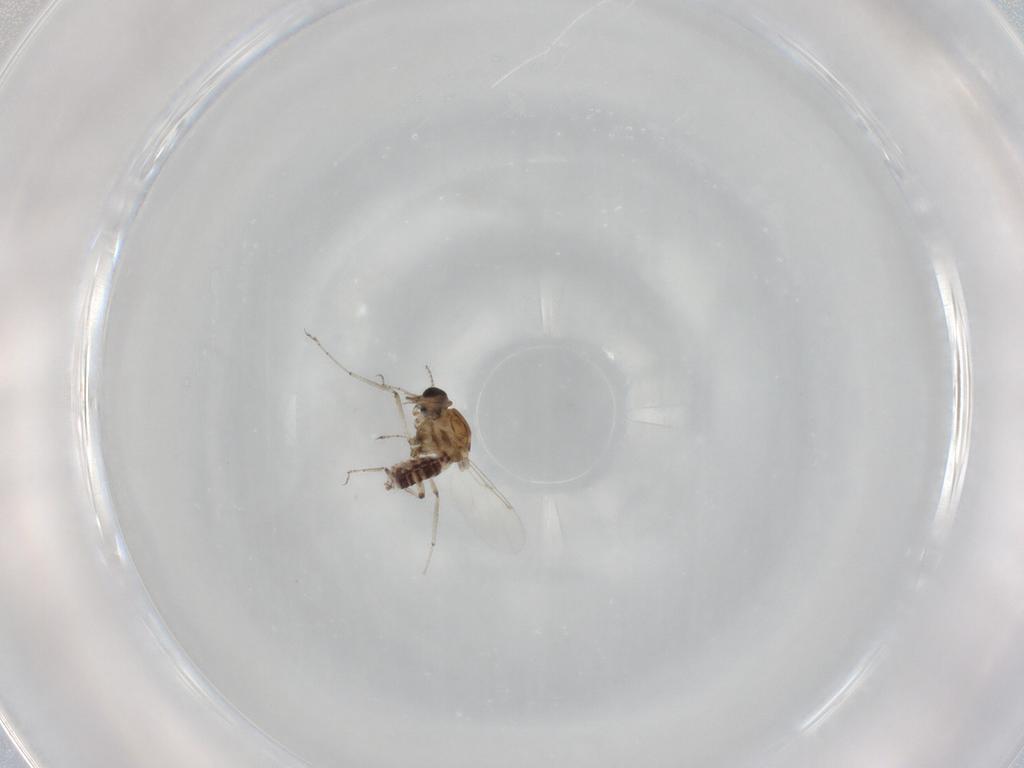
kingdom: Animalia
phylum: Arthropoda
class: Insecta
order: Diptera
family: Ceratopogonidae
